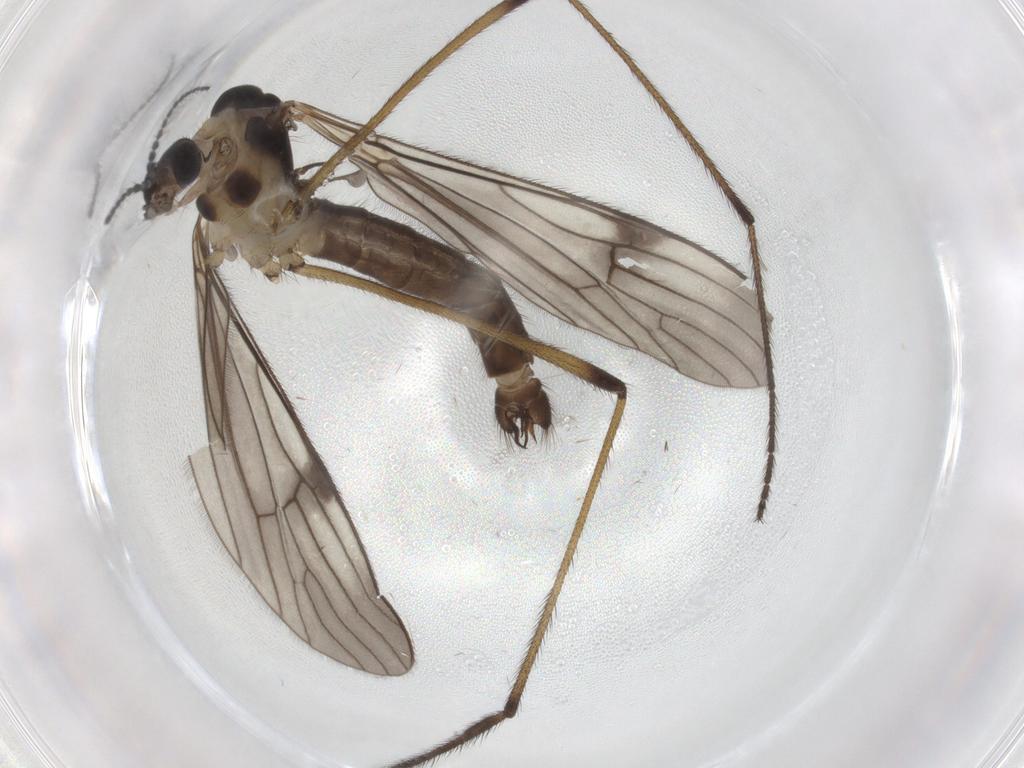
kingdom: Animalia
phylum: Arthropoda
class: Insecta
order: Diptera
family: Limoniidae
